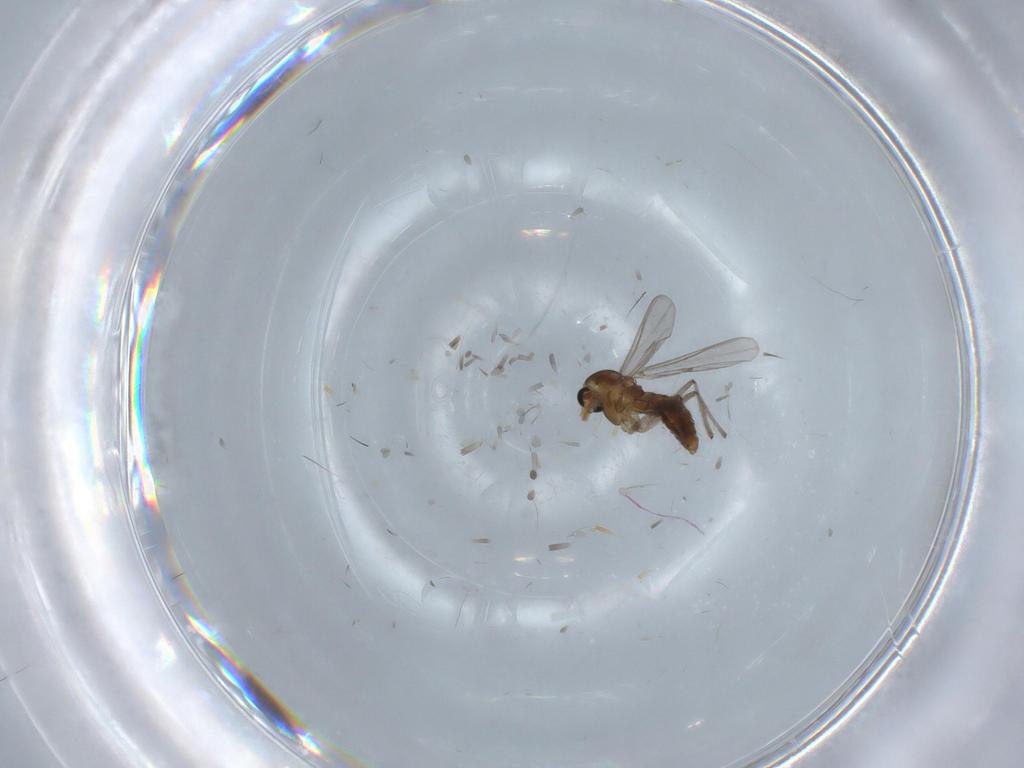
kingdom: Animalia
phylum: Arthropoda
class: Insecta
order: Diptera
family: Chironomidae
